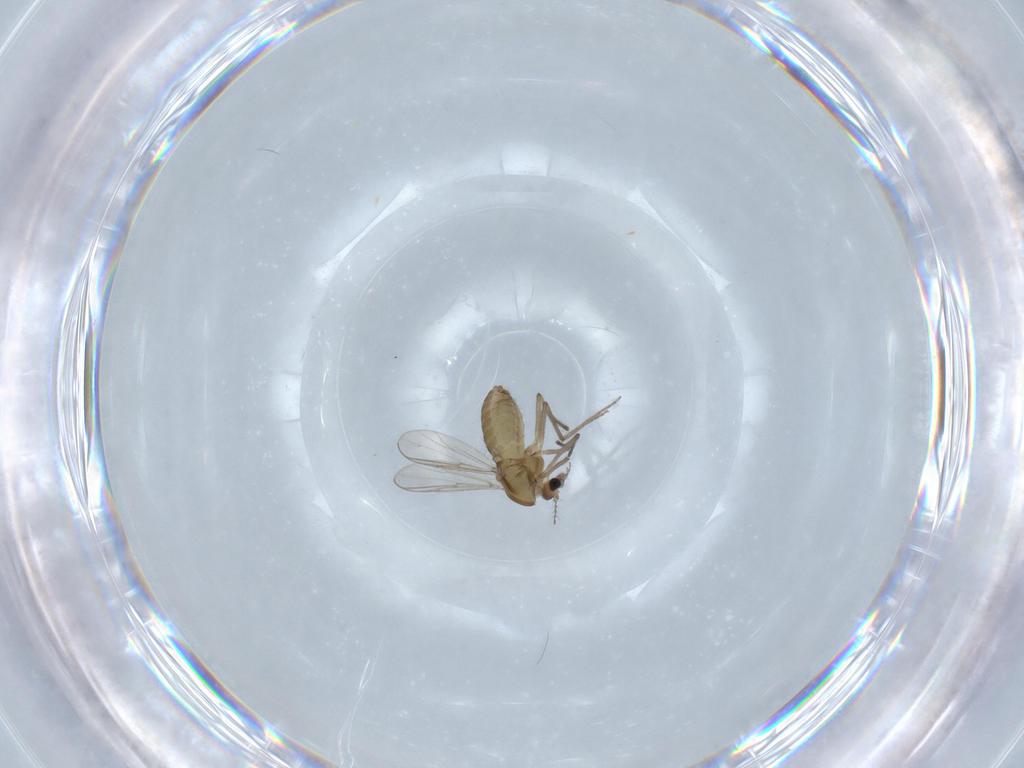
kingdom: Animalia
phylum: Arthropoda
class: Insecta
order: Diptera
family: Chironomidae
